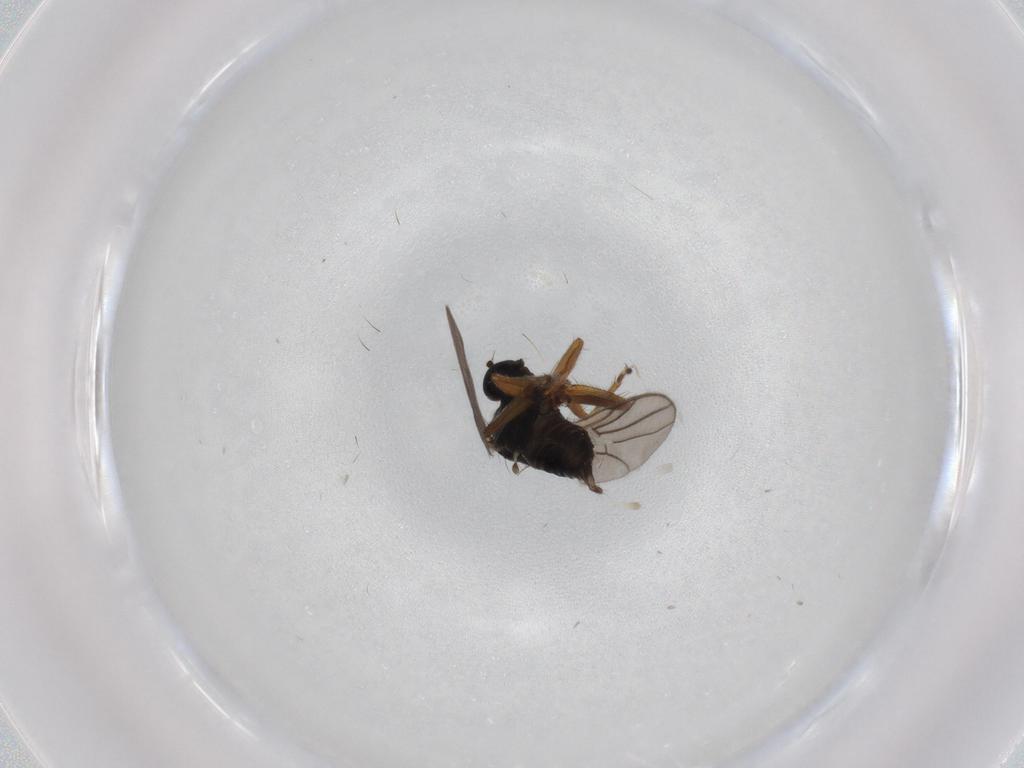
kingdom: Animalia
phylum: Arthropoda
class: Insecta
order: Diptera
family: Hybotidae
